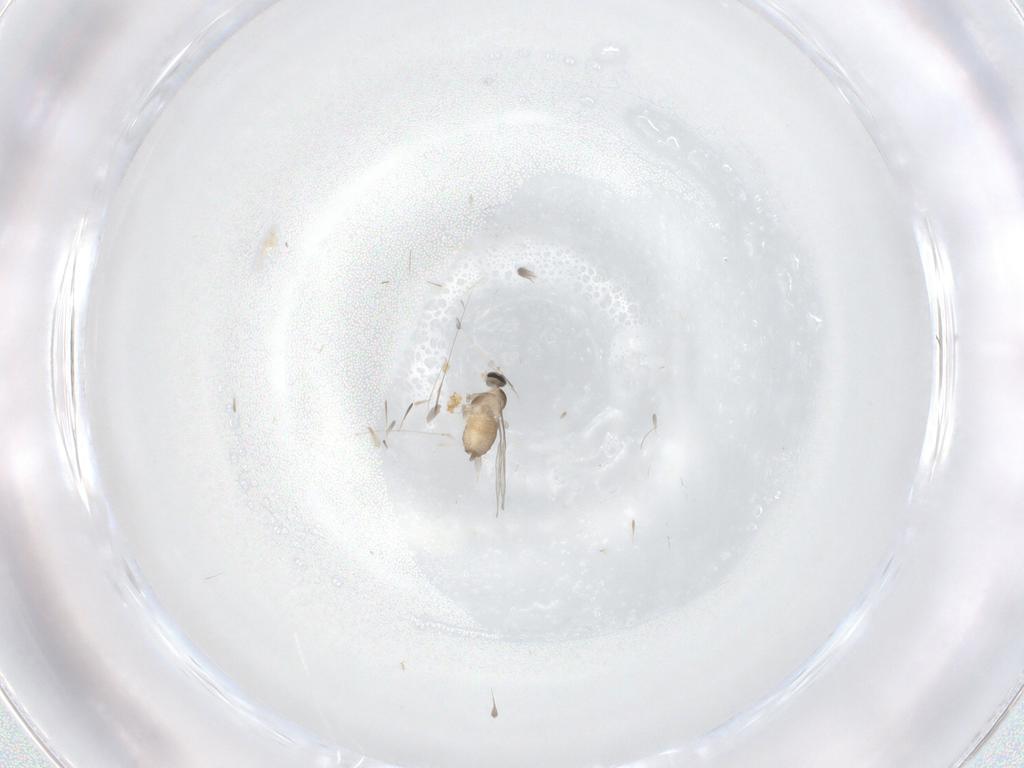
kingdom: Animalia
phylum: Arthropoda
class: Insecta
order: Diptera
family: Cecidomyiidae
